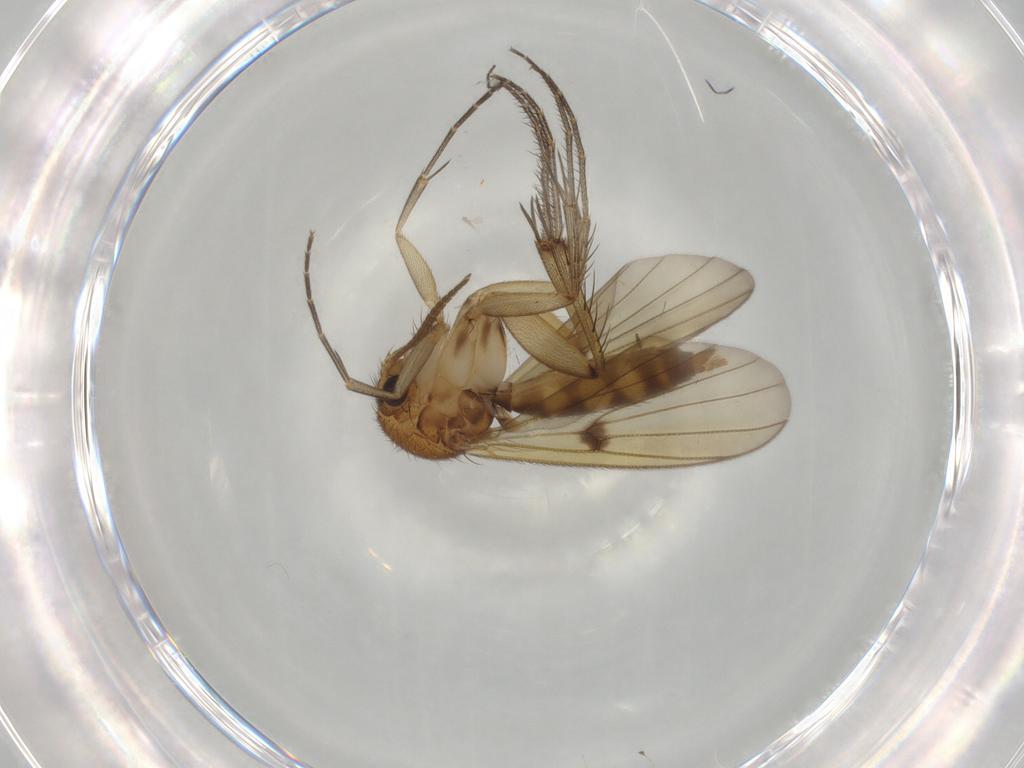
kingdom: Animalia
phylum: Arthropoda
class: Insecta
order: Diptera
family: Mycetophilidae
